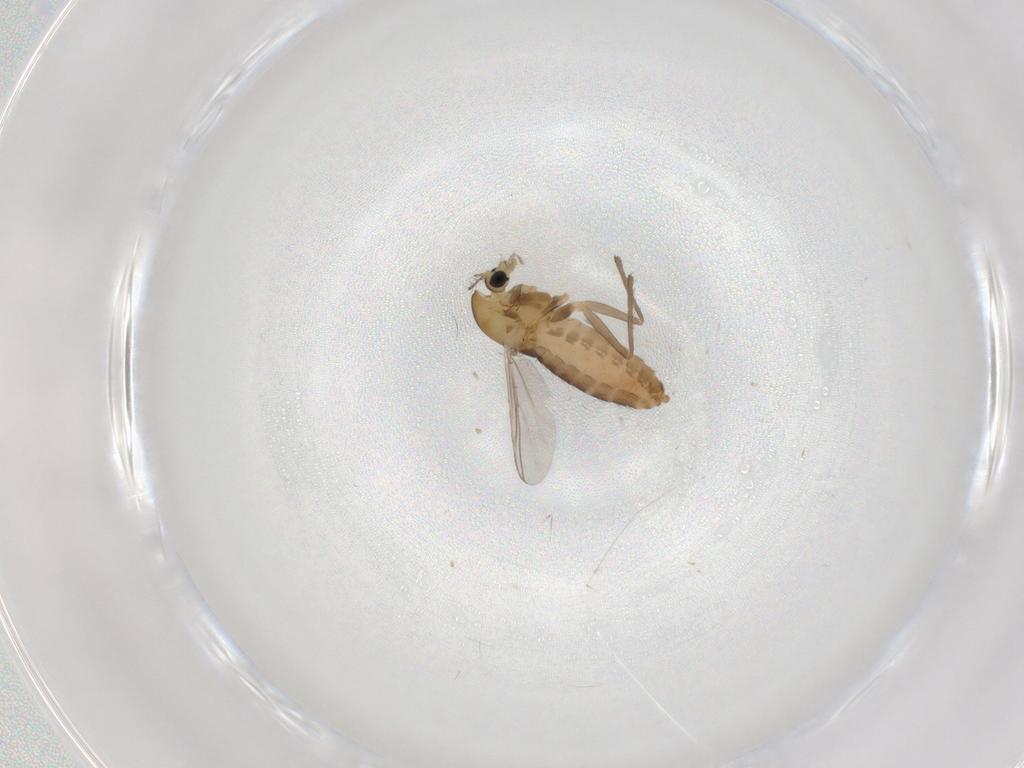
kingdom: Animalia
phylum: Arthropoda
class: Insecta
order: Diptera
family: Chironomidae
